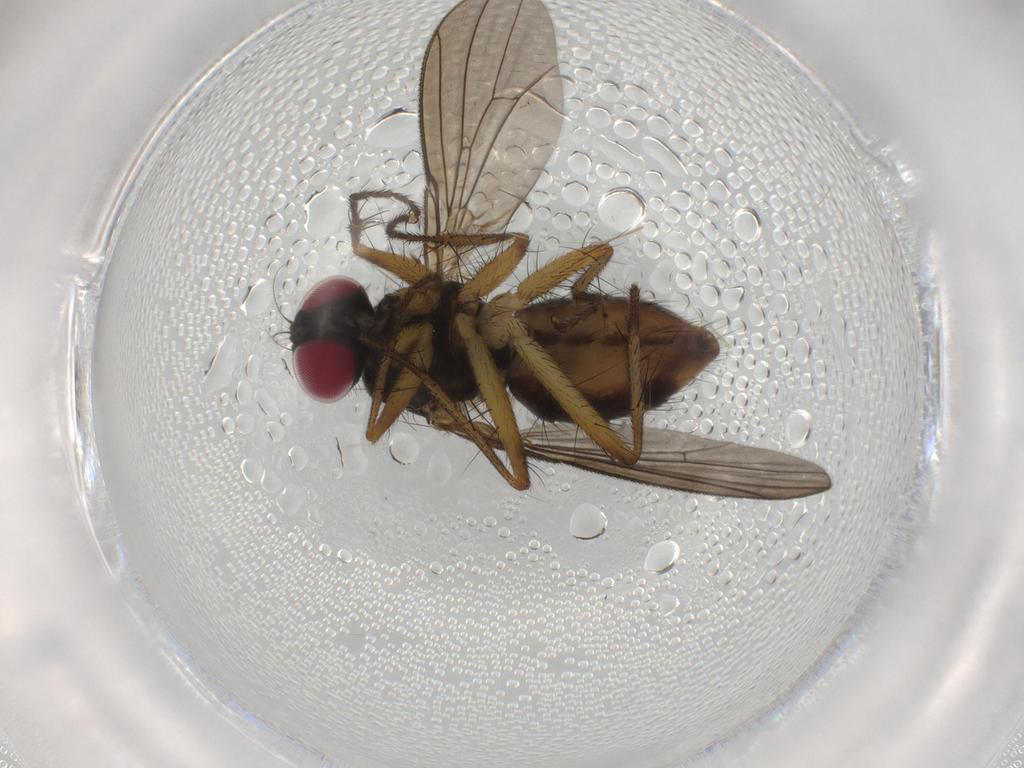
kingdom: Animalia
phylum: Arthropoda
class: Insecta
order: Diptera
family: Anthomyiidae
